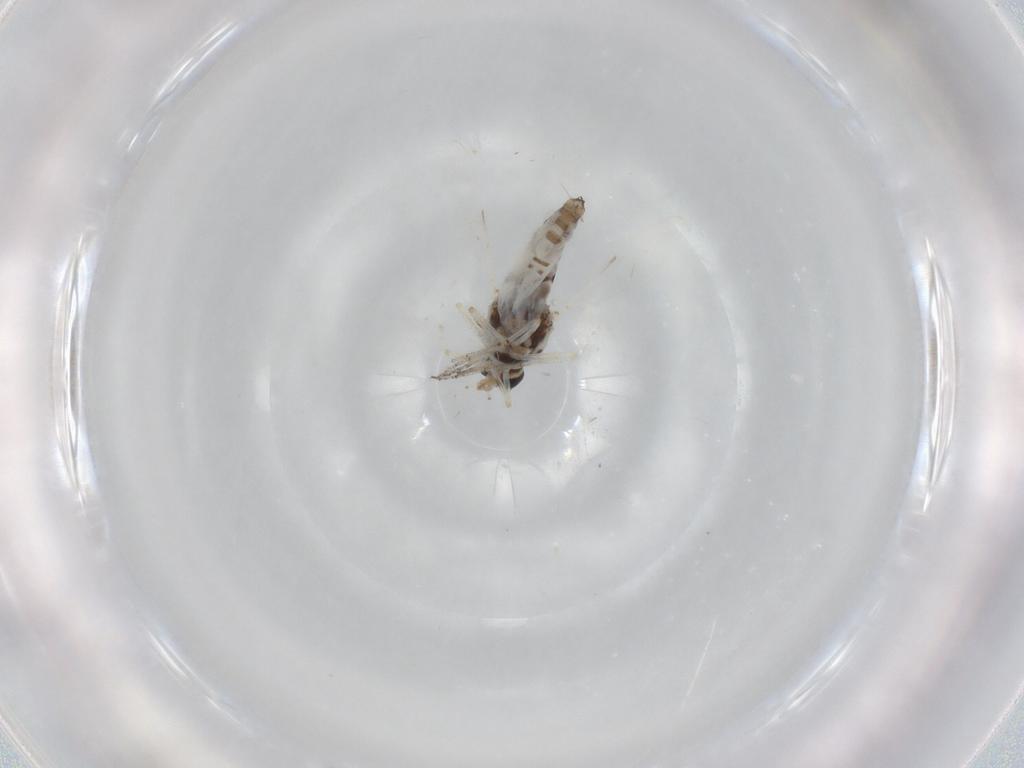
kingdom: Animalia
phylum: Arthropoda
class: Insecta
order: Diptera
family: Ceratopogonidae
